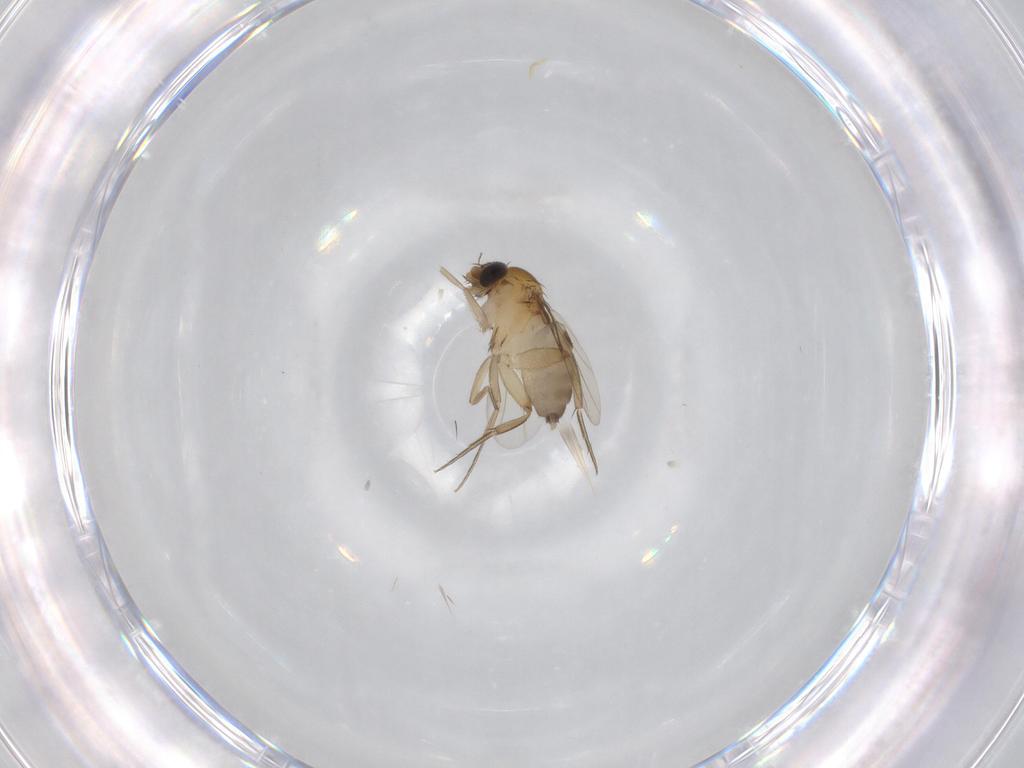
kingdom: Animalia
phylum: Arthropoda
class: Insecta
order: Diptera
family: Phoridae
